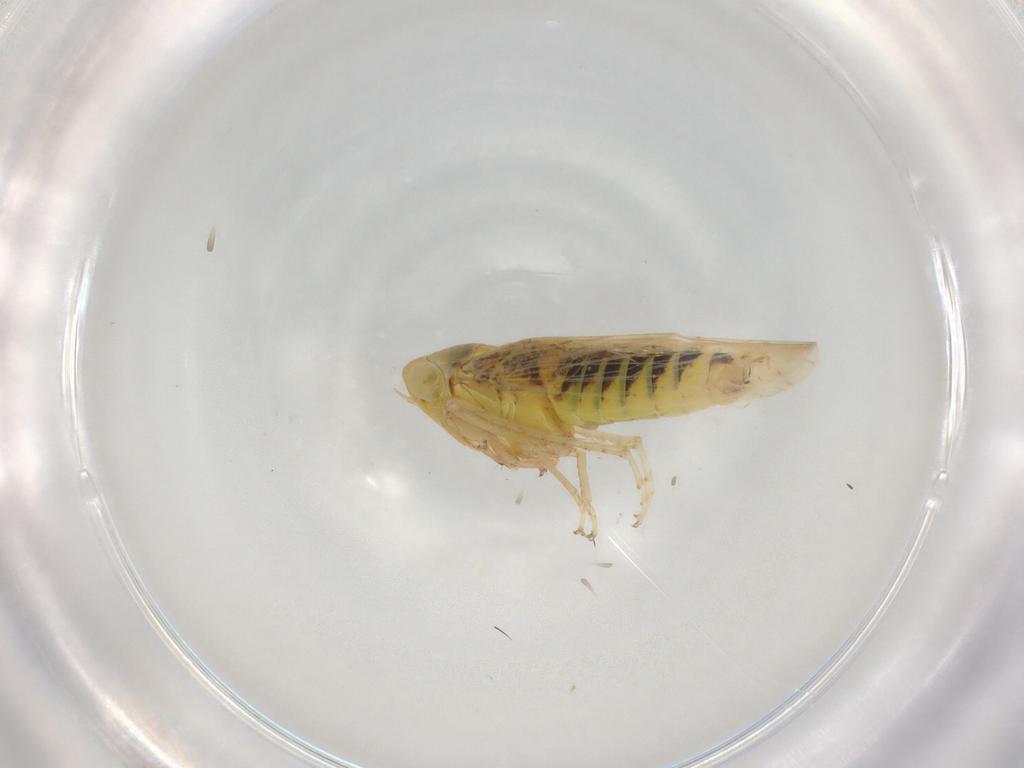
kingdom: Animalia
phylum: Arthropoda
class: Insecta
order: Hemiptera
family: Cicadellidae
